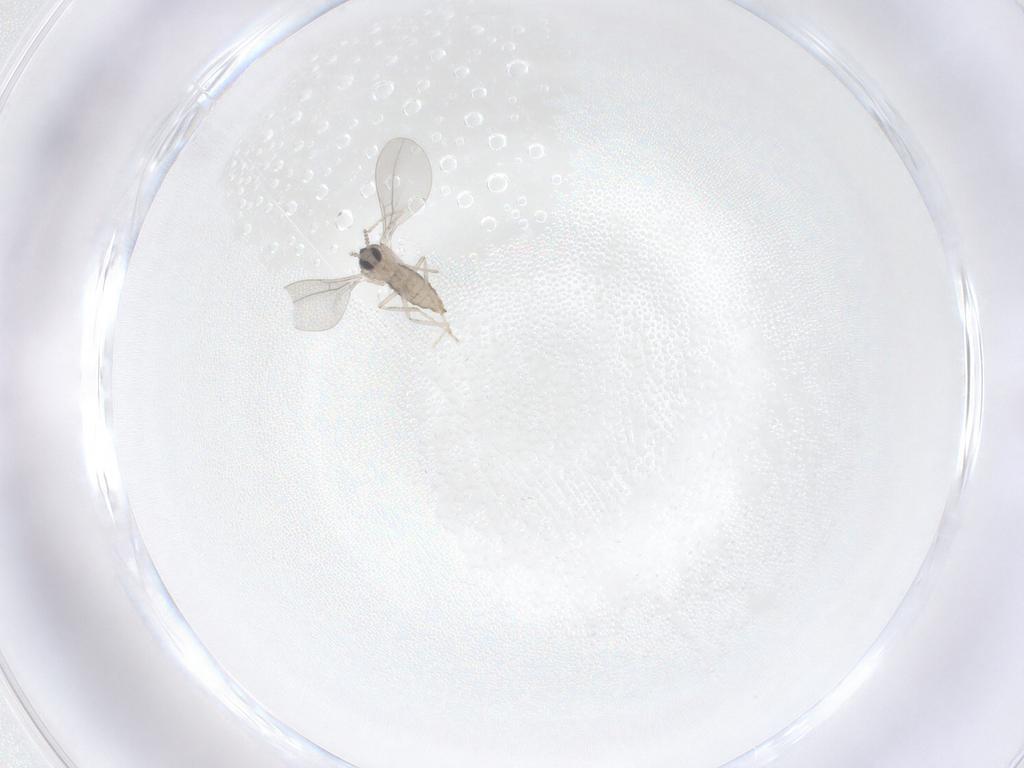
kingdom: Animalia
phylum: Arthropoda
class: Insecta
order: Diptera
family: Cecidomyiidae
